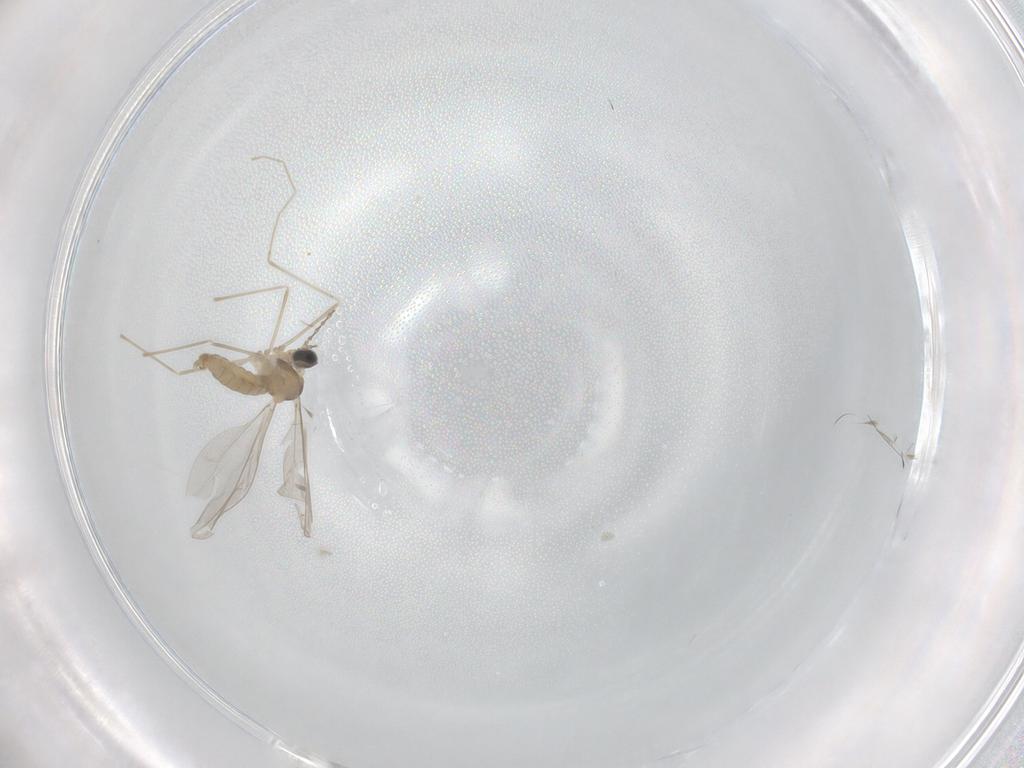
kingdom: Animalia
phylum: Arthropoda
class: Insecta
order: Diptera
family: Cecidomyiidae
